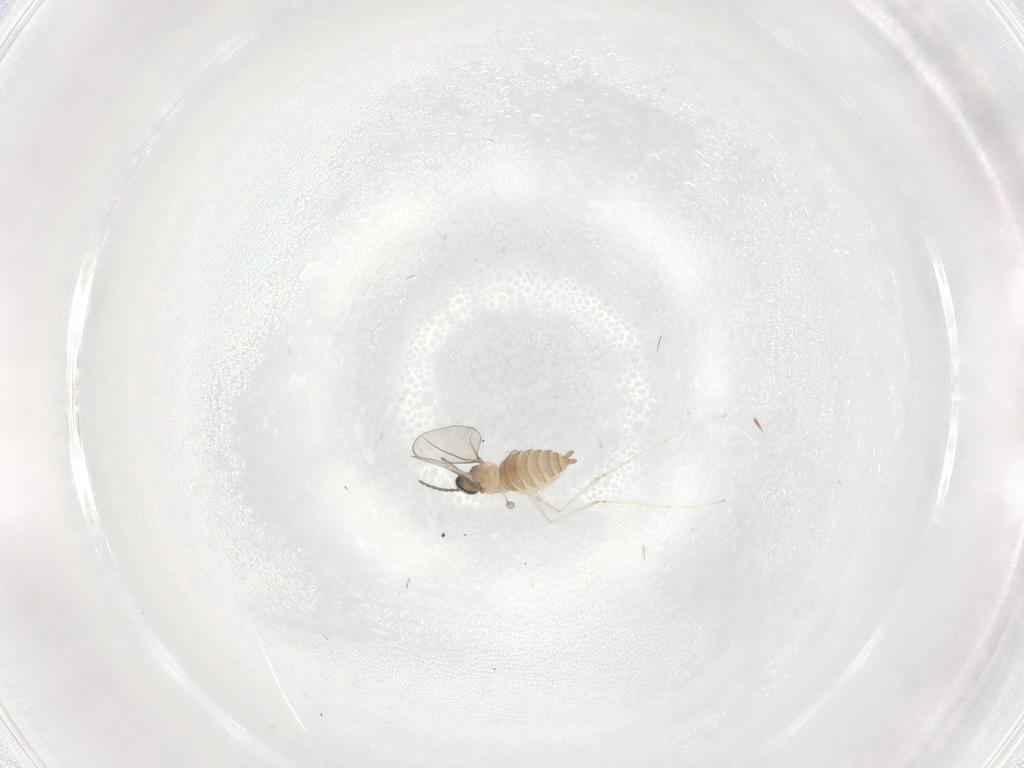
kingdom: Animalia
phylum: Arthropoda
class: Insecta
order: Diptera
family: Cecidomyiidae
